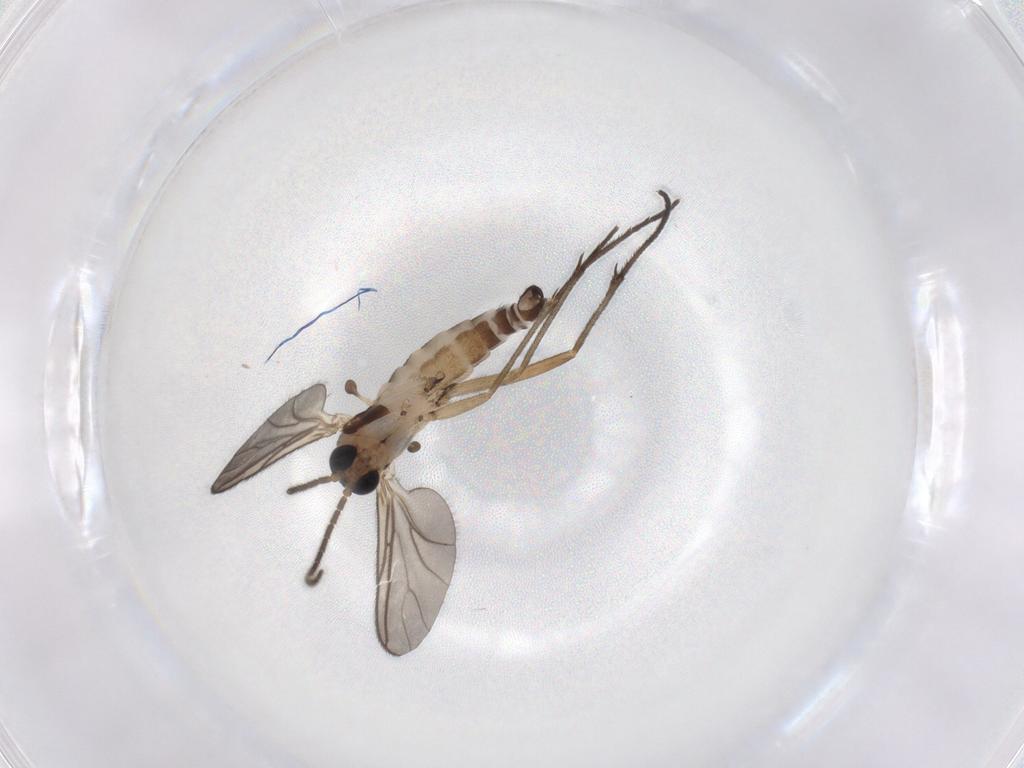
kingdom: Animalia
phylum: Arthropoda
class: Insecta
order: Diptera
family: Sciaridae
